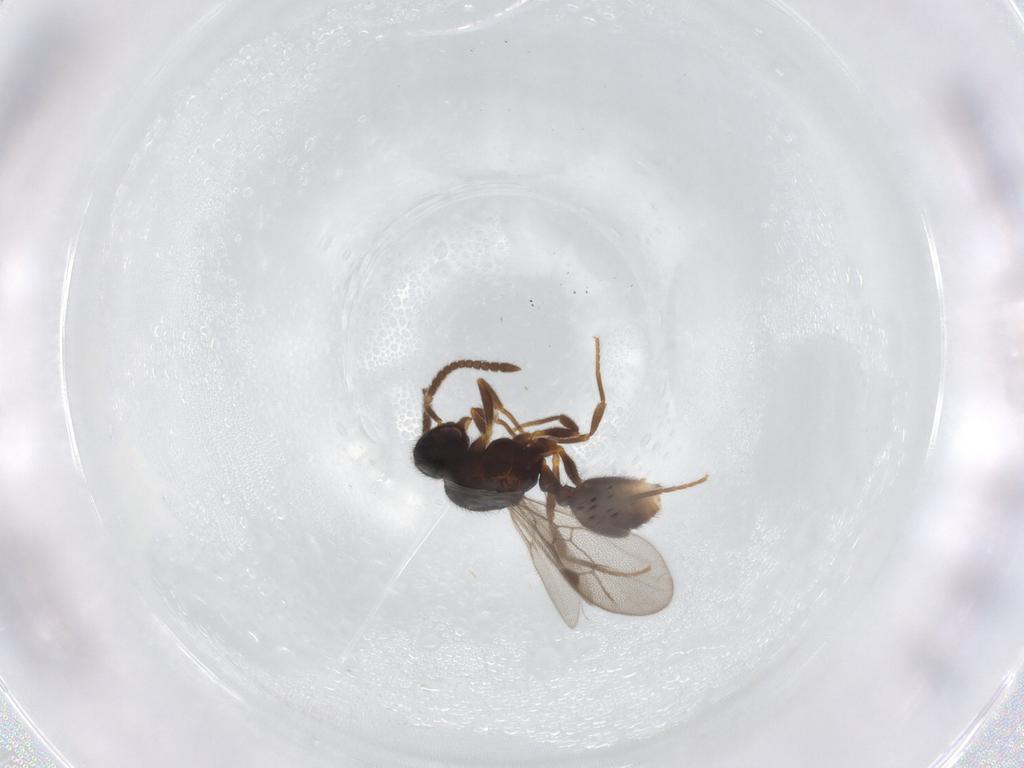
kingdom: Animalia
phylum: Arthropoda
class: Insecta
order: Hymenoptera
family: Formicidae
